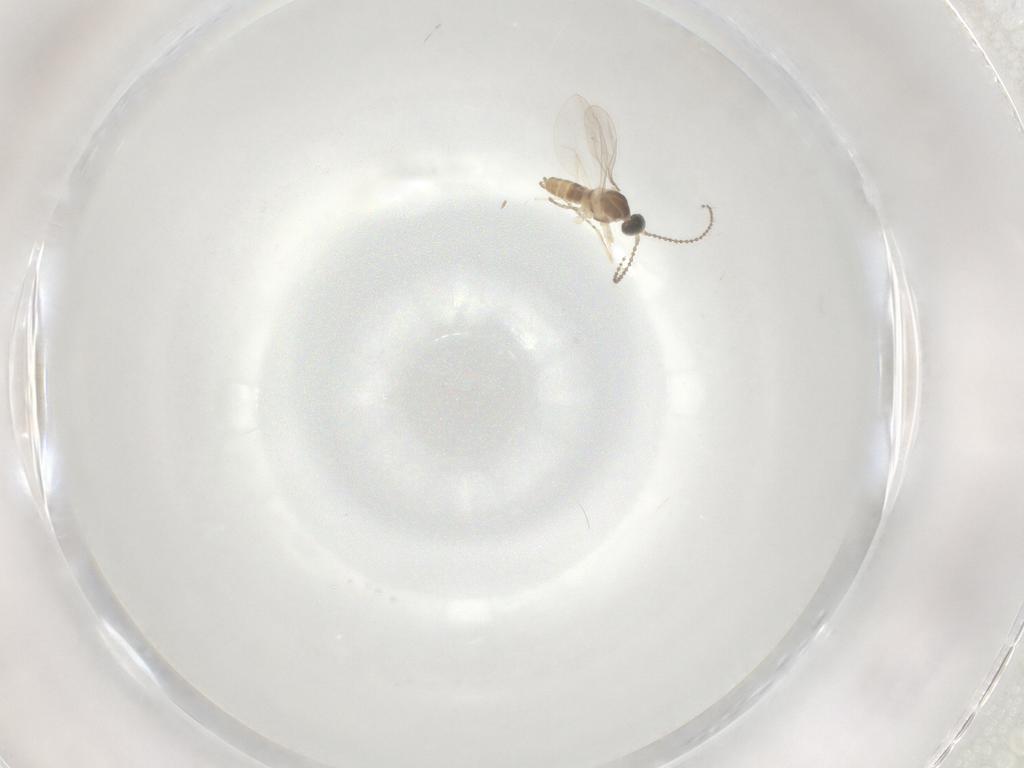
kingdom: Animalia
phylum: Arthropoda
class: Insecta
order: Diptera
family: Cecidomyiidae
